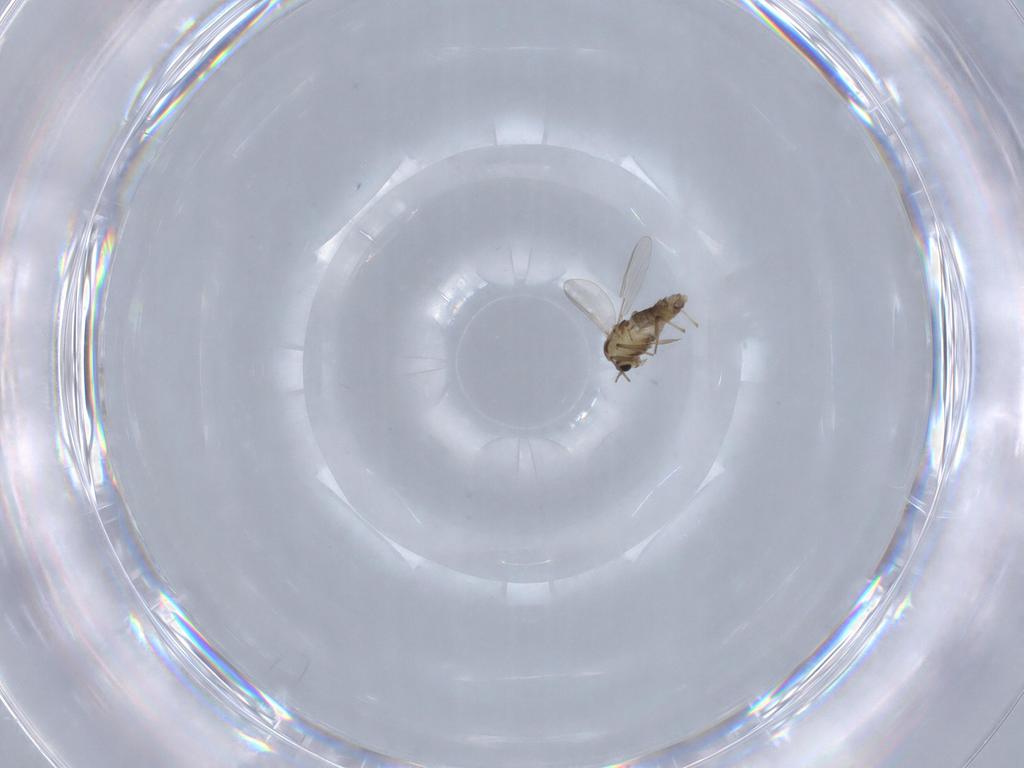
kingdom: Animalia
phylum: Arthropoda
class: Insecta
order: Diptera
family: Chironomidae
